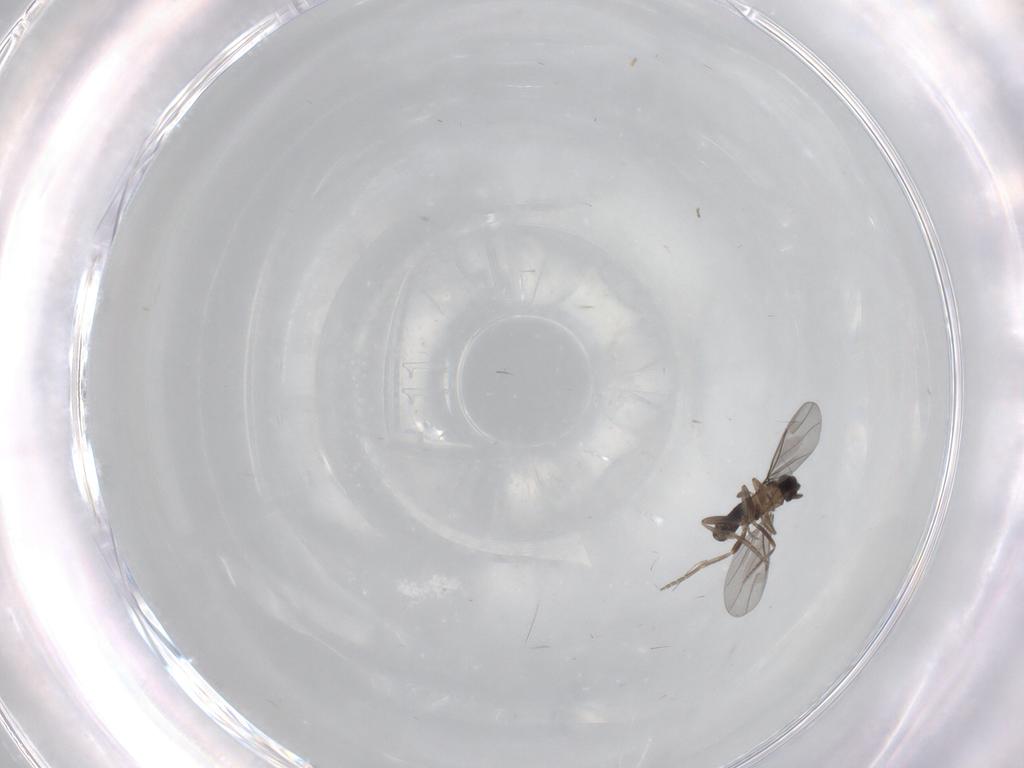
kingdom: Animalia
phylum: Arthropoda
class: Insecta
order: Diptera
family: Cecidomyiidae
